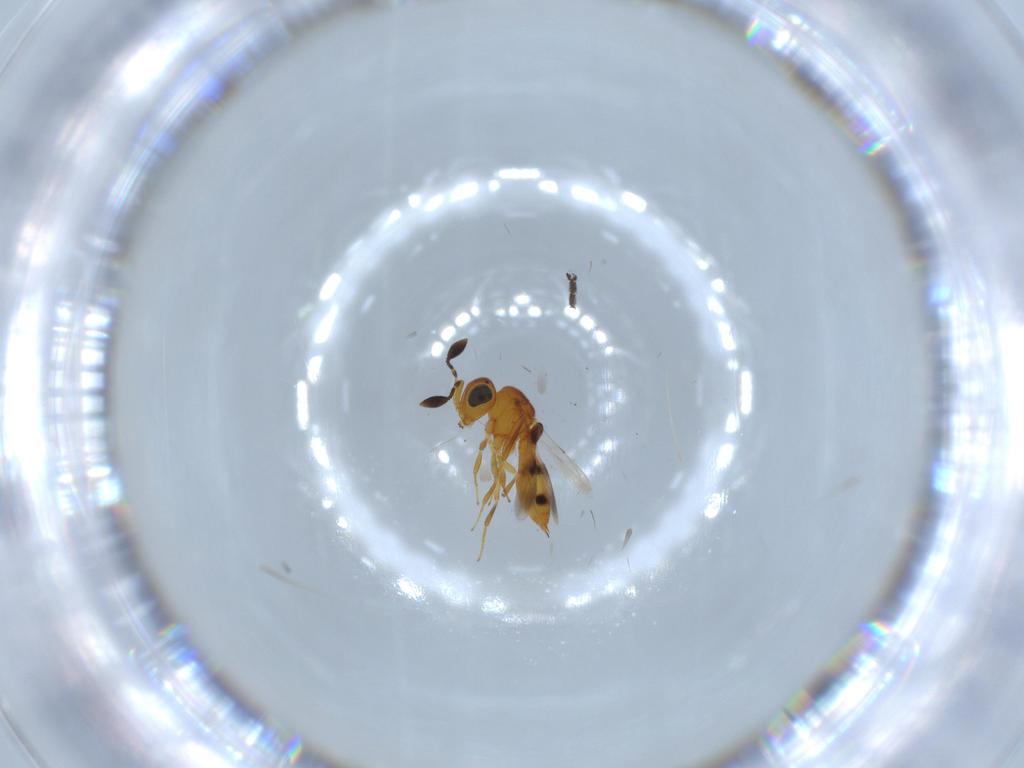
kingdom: Animalia
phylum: Arthropoda
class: Insecta
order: Hymenoptera
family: Scelionidae
